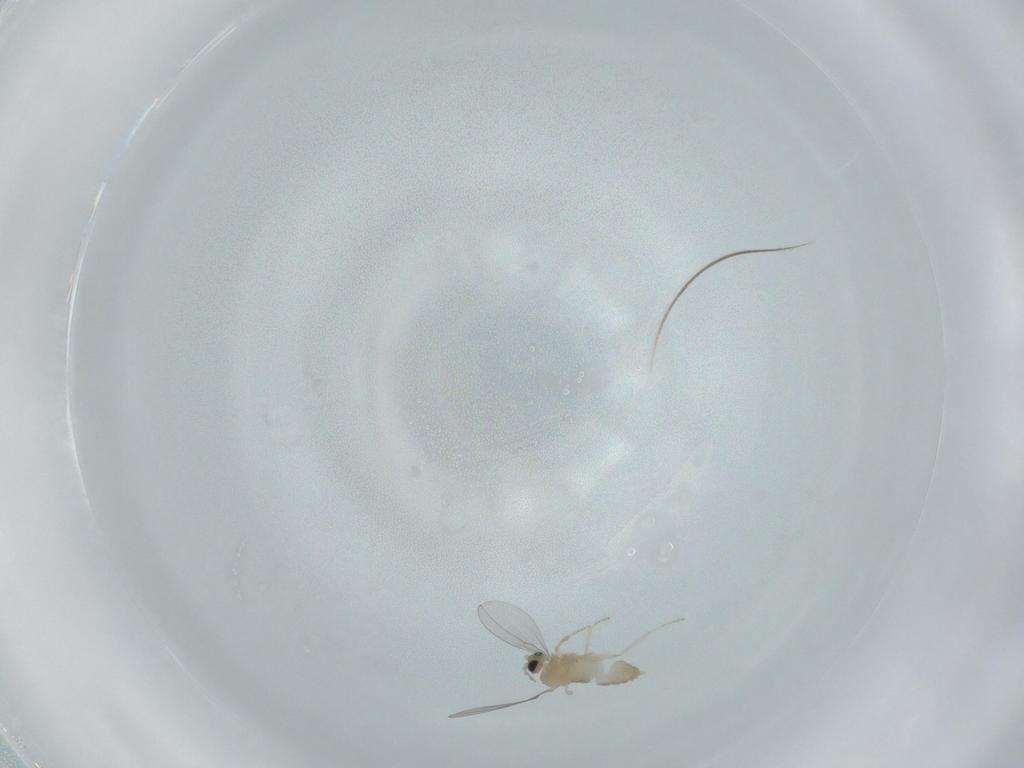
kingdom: Animalia
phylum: Arthropoda
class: Insecta
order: Diptera
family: Cecidomyiidae
